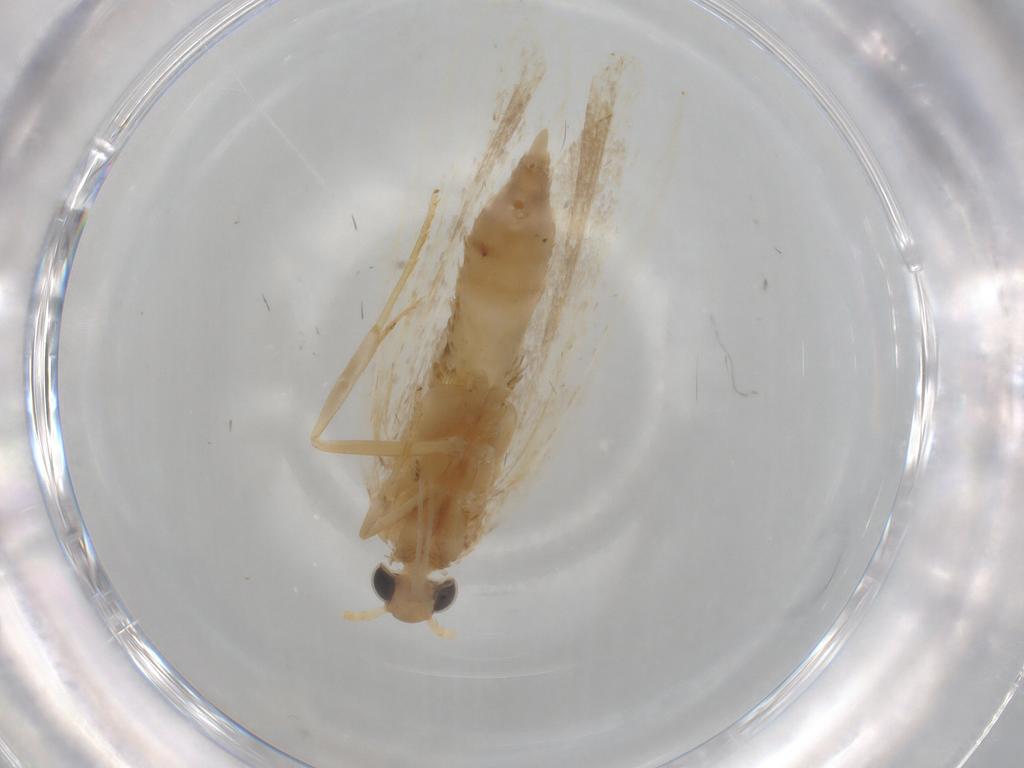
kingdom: Animalia
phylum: Arthropoda
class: Insecta
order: Lepidoptera
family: Lecithoceridae
